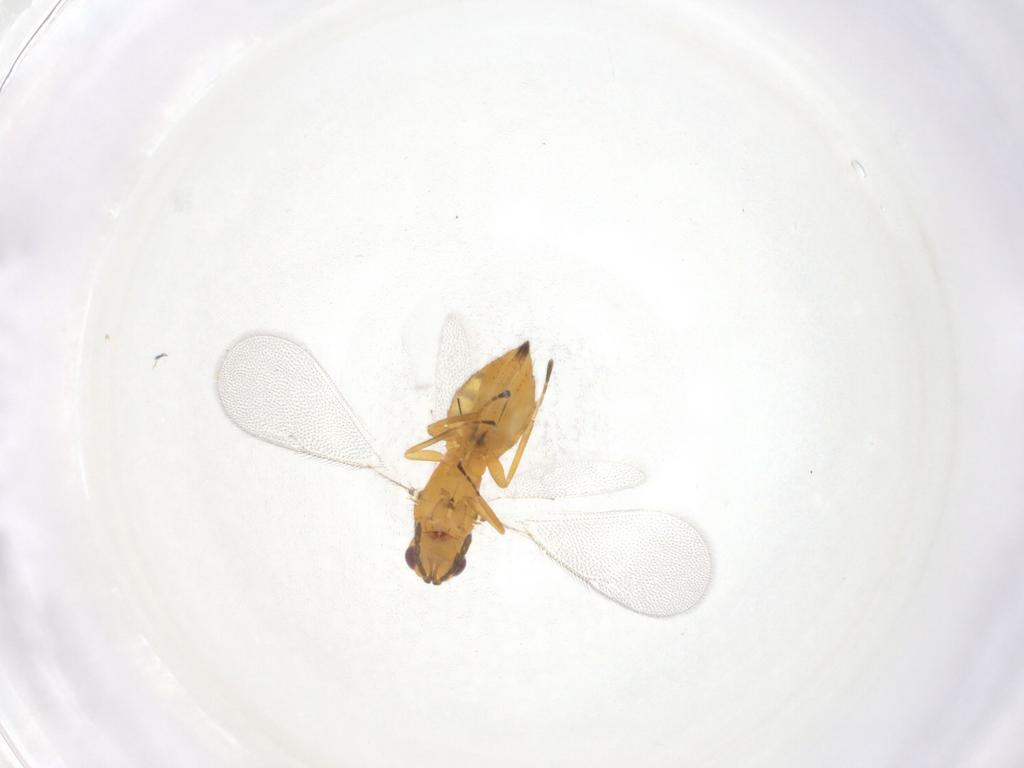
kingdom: Animalia
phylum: Arthropoda
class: Insecta
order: Hymenoptera
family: Eulophidae
